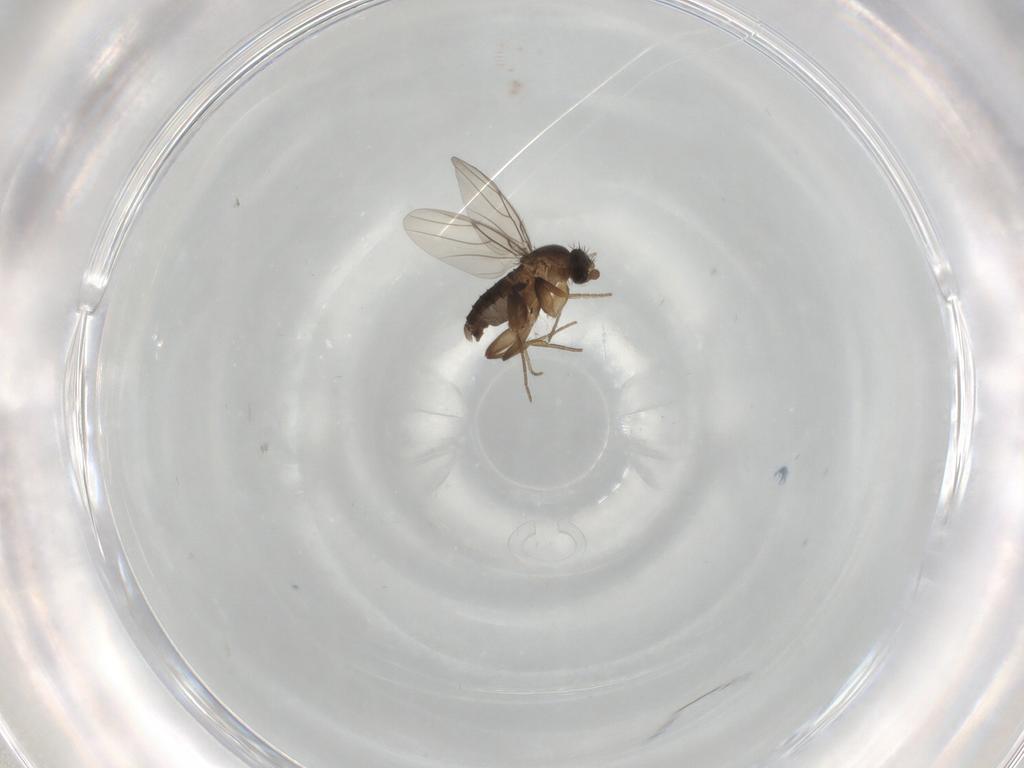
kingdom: Animalia
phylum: Arthropoda
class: Insecta
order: Diptera
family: Phoridae
